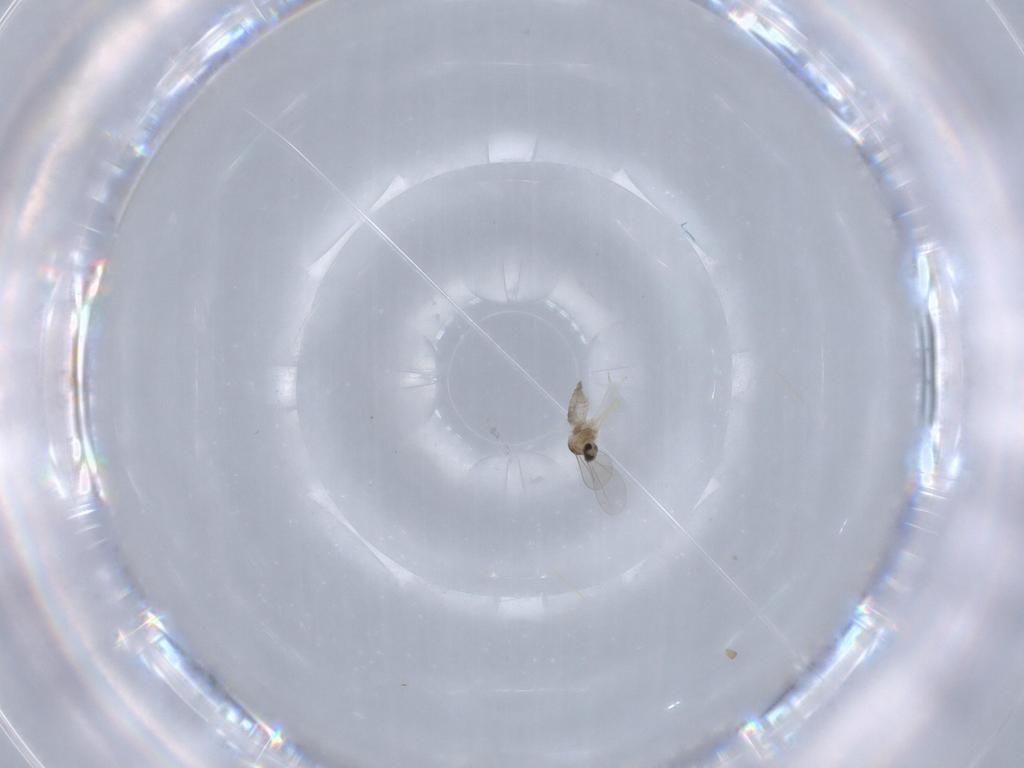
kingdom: Animalia
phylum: Arthropoda
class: Insecta
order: Diptera
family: Cecidomyiidae
